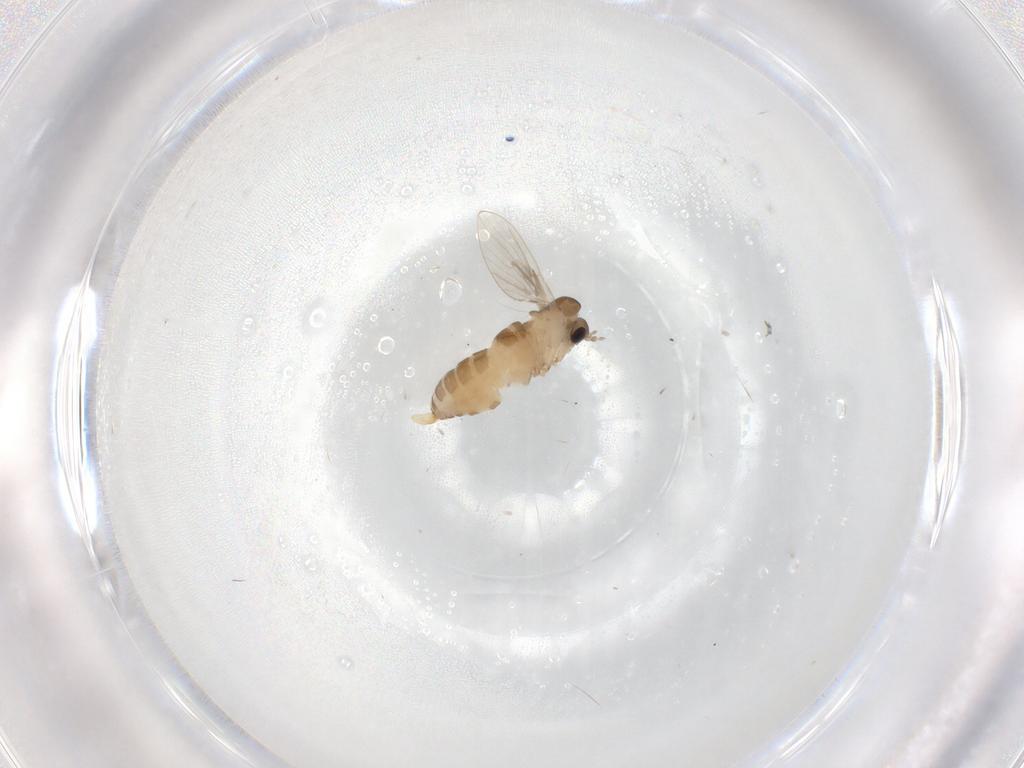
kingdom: Animalia
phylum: Arthropoda
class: Insecta
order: Diptera
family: Psychodidae
